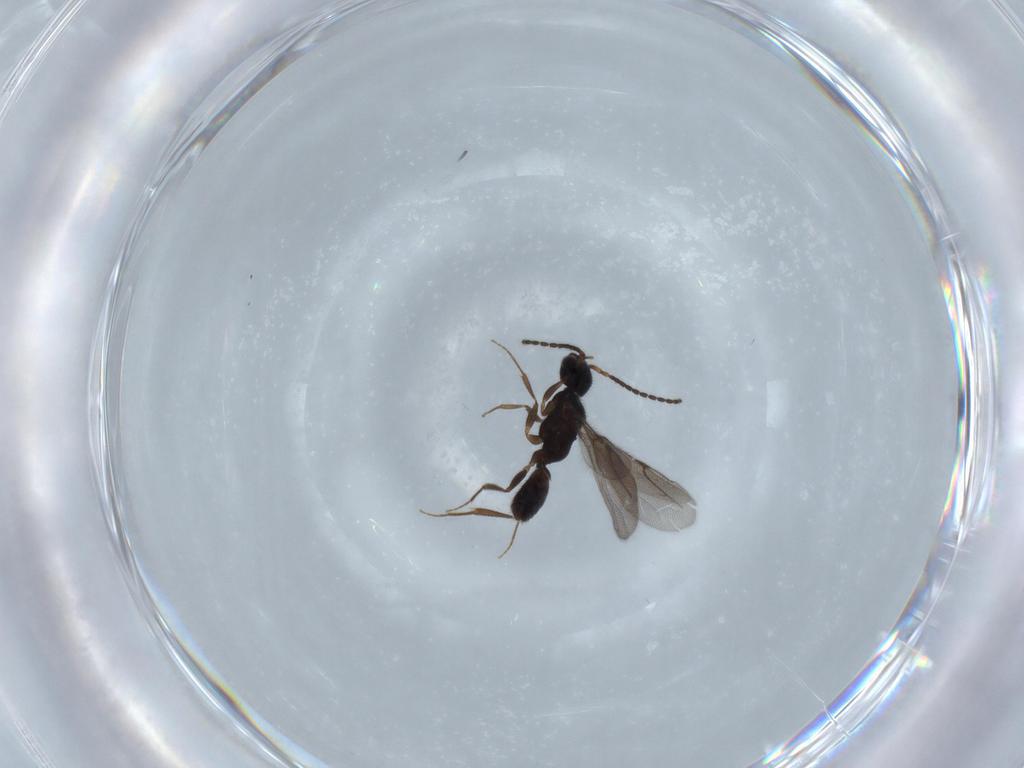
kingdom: Animalia
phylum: Arthropoda
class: Insecta
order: Hymenoptera
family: Bethylidae
